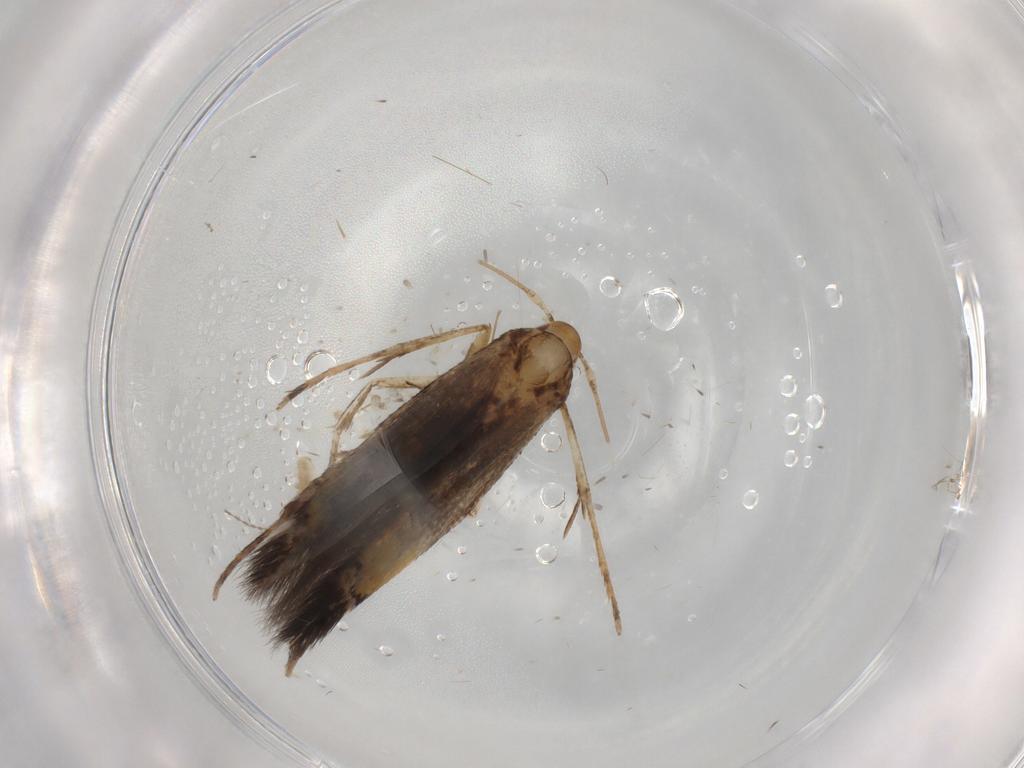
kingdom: Animalia
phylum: Arthropoda
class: Insecta
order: Lepidoptera
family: Cosmopterigidae
